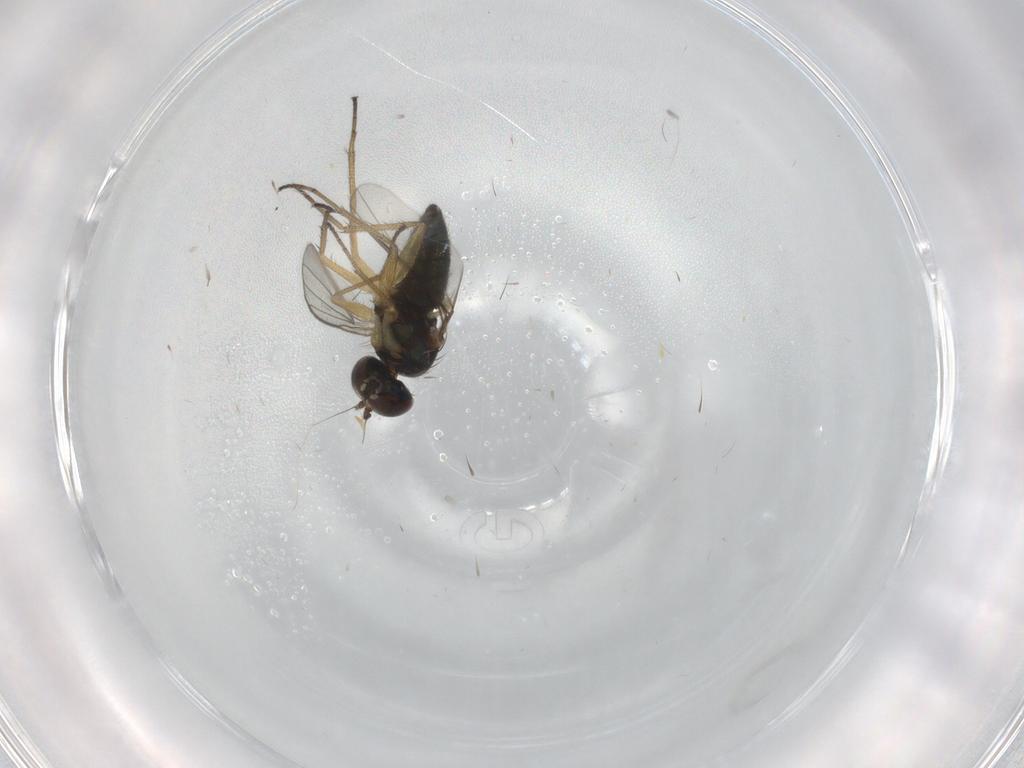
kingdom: Animalia
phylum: Arthropoda
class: Insecta
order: Diptera
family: Dolichopodidae
